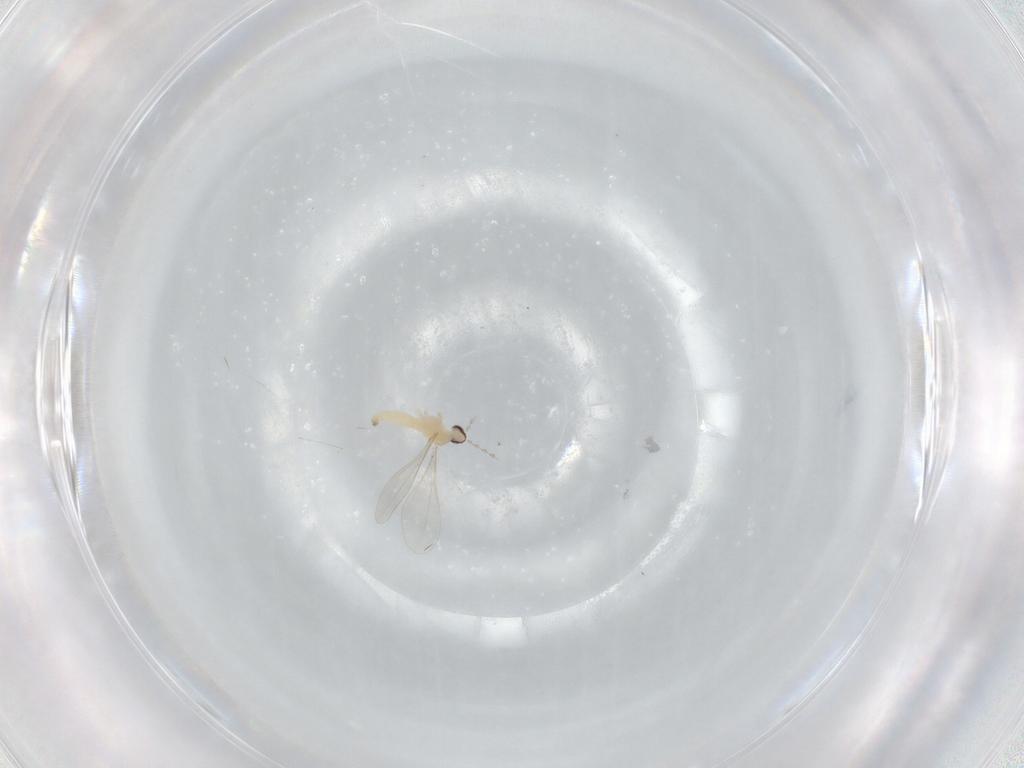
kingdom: Animalia
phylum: Arthropoda
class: Insecta
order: Diptera
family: Cecidomyiidae
